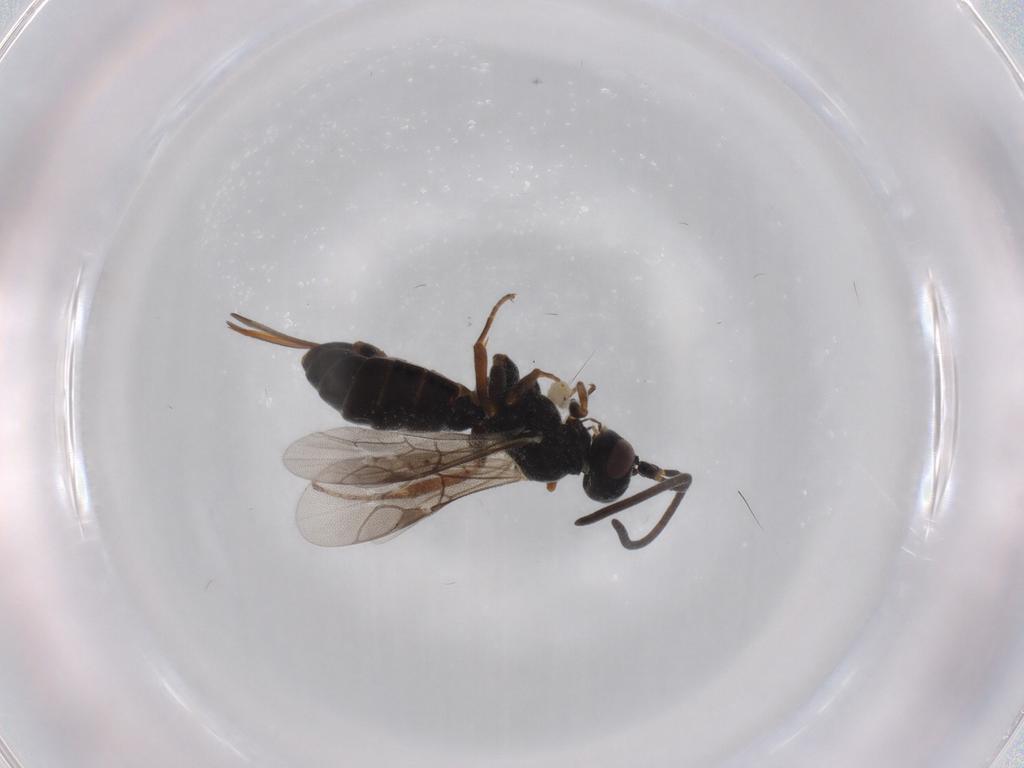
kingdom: Animalia
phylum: Arthropoda
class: Insecta
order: Hymenoptera
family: Ichneumonidae
